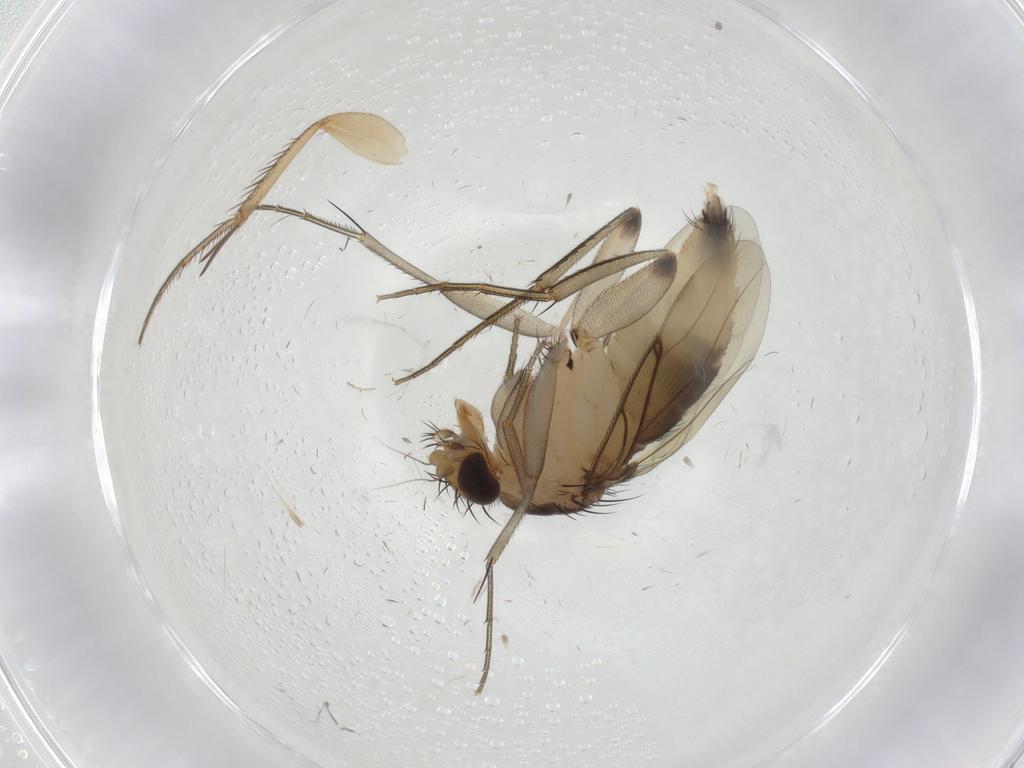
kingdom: Animalia
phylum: Arthropoda
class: Insecta
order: Diptera
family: Mycetophilidae
